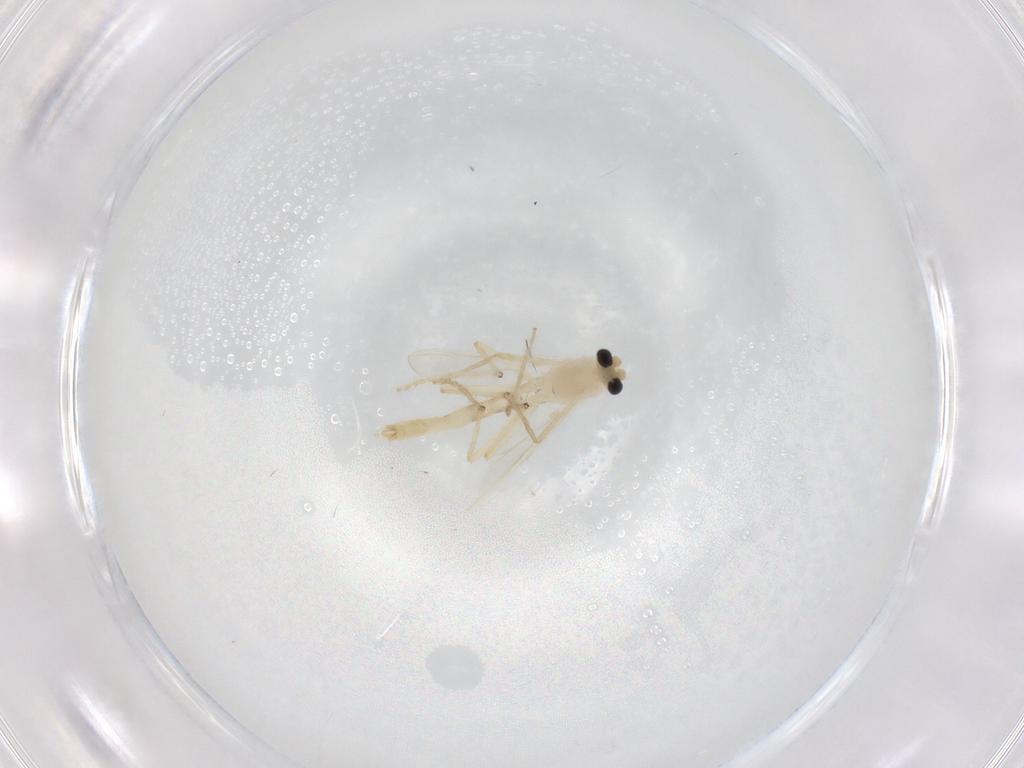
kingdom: Animalia
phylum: Arthropoda
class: Insecta
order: Diptera
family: Chironomidae
